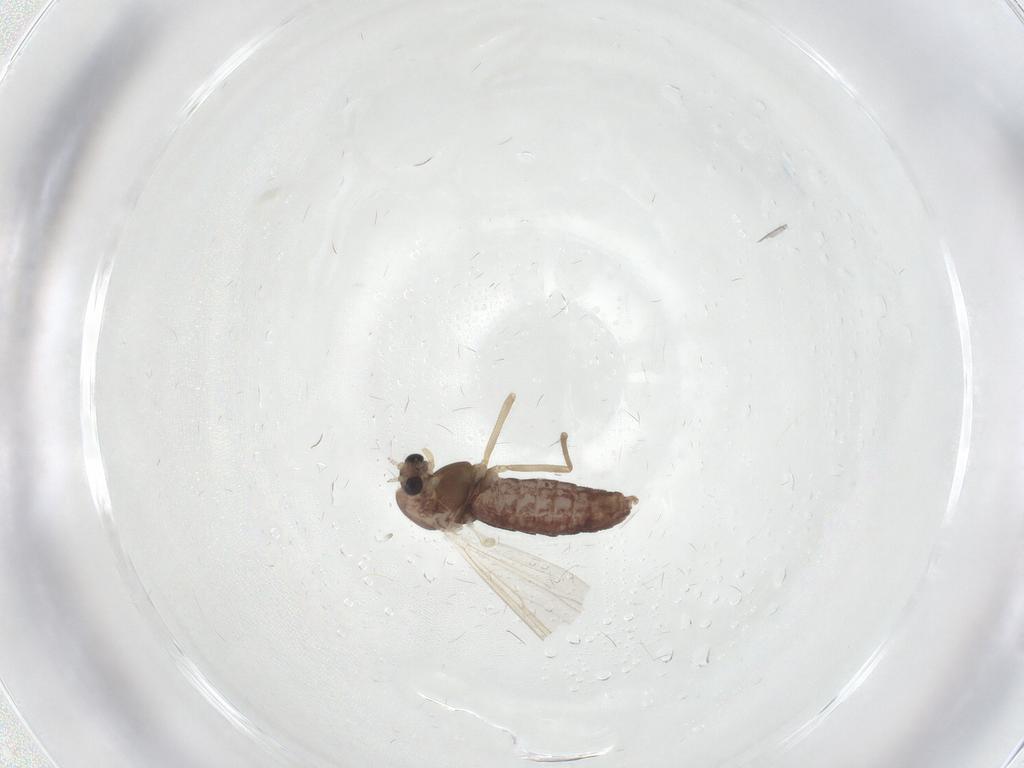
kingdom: Animalia
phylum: Arthropoda
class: Insecta
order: Diptera
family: Chironomidae
